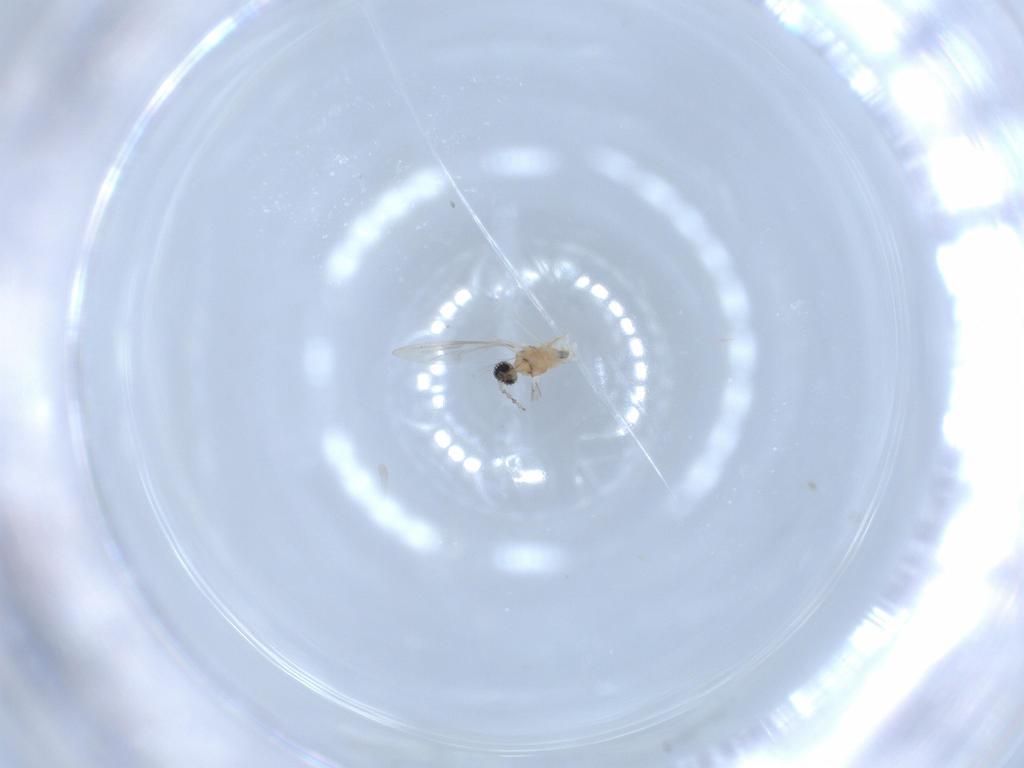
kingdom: Animalia
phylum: Arthropoda
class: Insecta
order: Diptera
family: Cecidomyiidae
